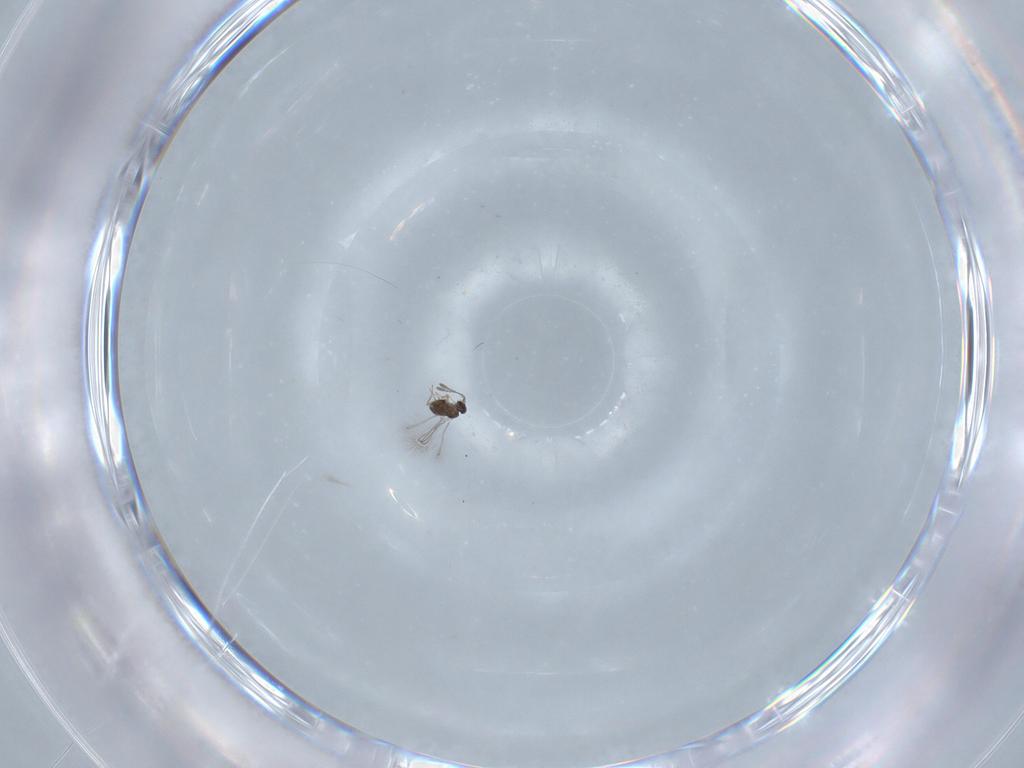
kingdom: Animalia
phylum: Arthropoda
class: Insecta
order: Hymenoptera
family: Mymaridae
